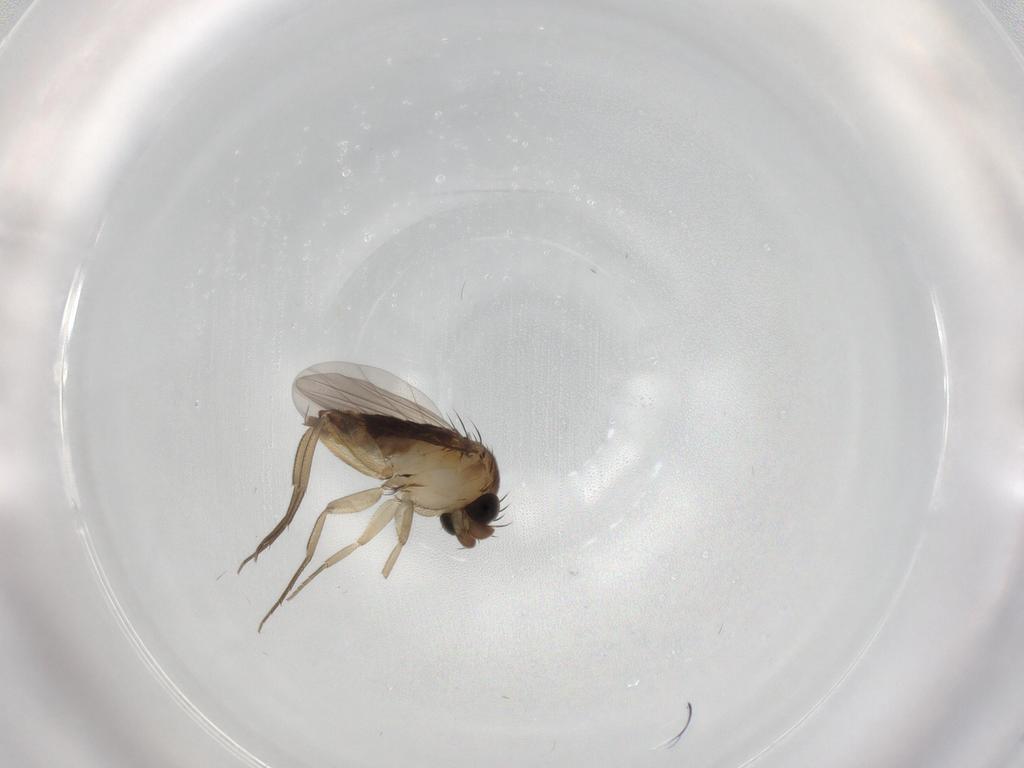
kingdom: Animalia
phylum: Arthropoda
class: Insecta
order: Diptera
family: Phoridae
